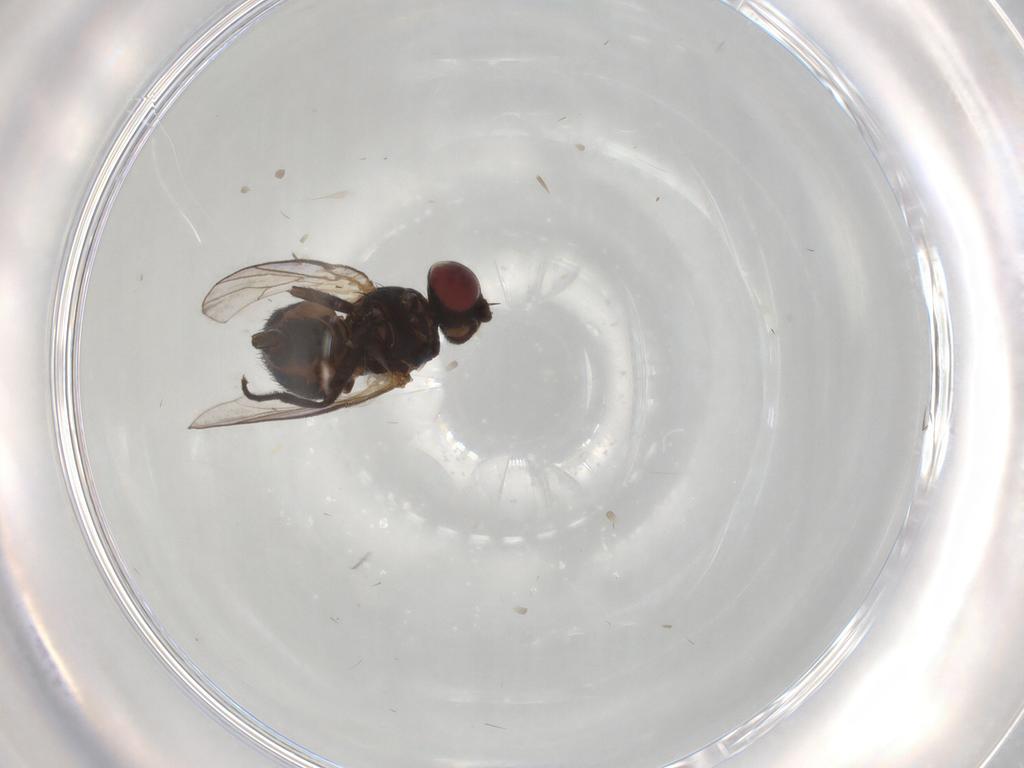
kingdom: Animalia
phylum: Arthropoda
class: Insecta
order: Diptera
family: Agromyzidae
